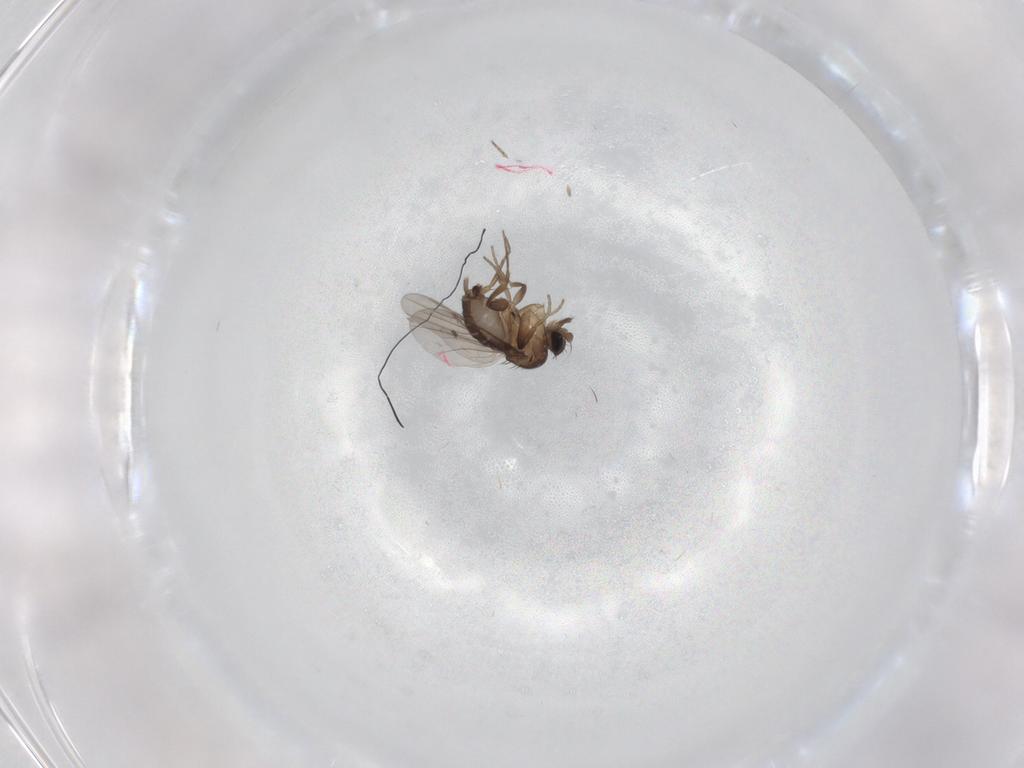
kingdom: Animalia
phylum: Arthropoda
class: Insecta
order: Diptera
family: Phoridae
